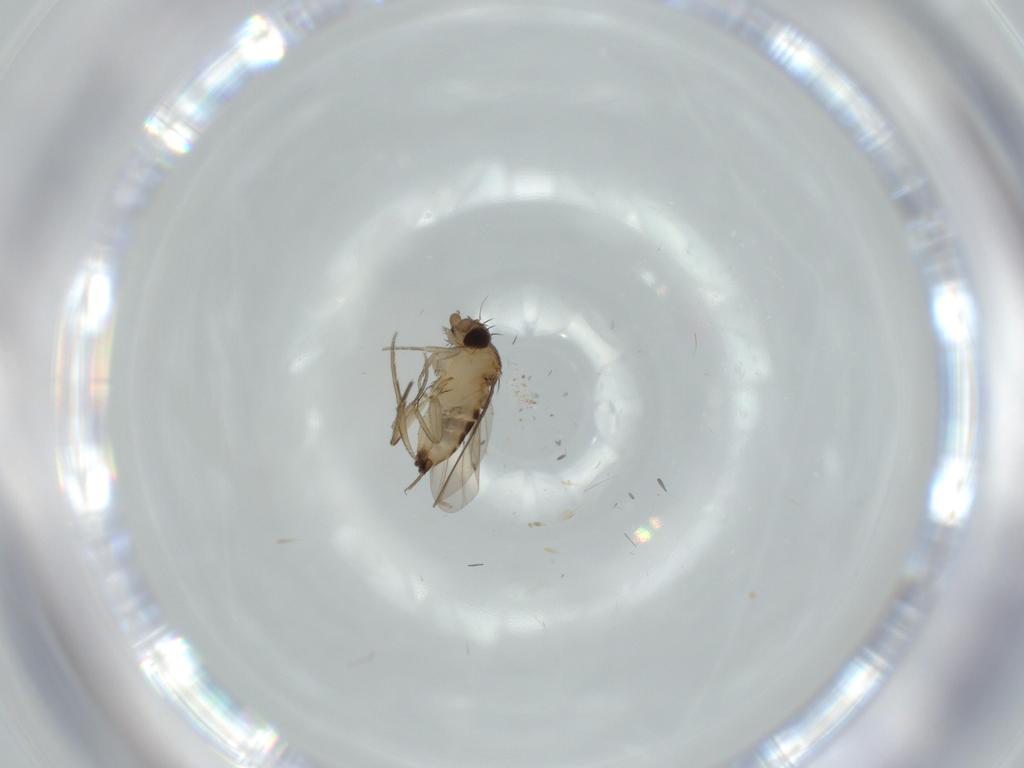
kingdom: Animalia
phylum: Arthropoda
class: Insecta
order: Diptera
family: Phoridae
